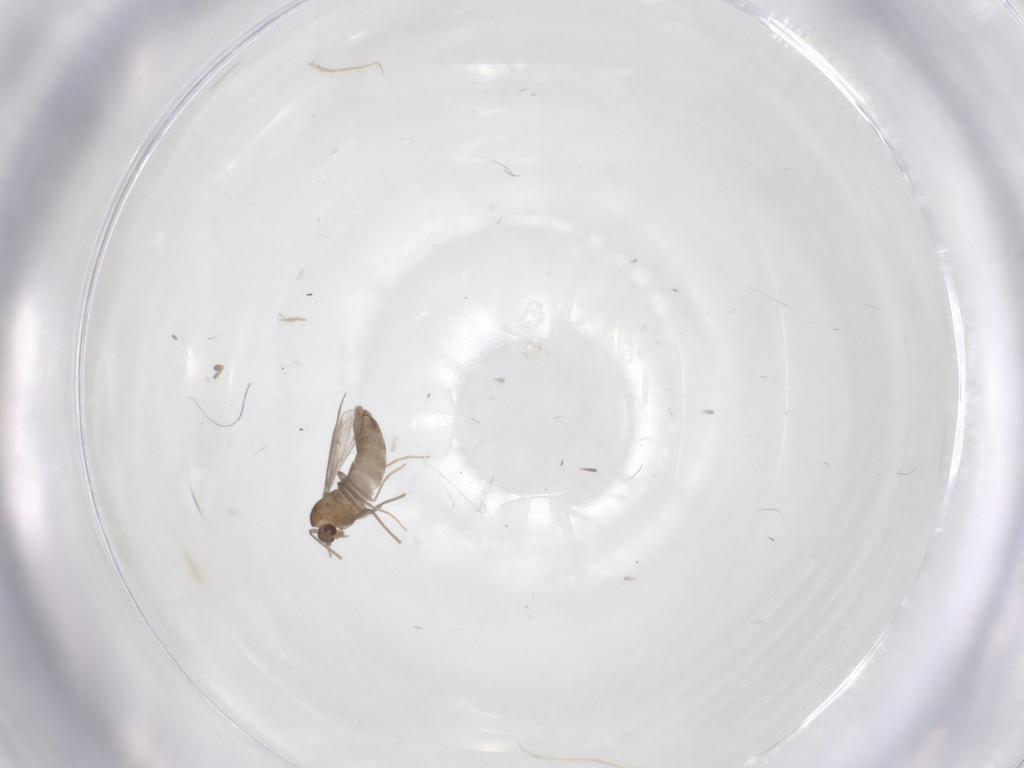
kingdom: Animalia
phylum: Arthropoda
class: Insecta
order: Diptera
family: Chironomidae
